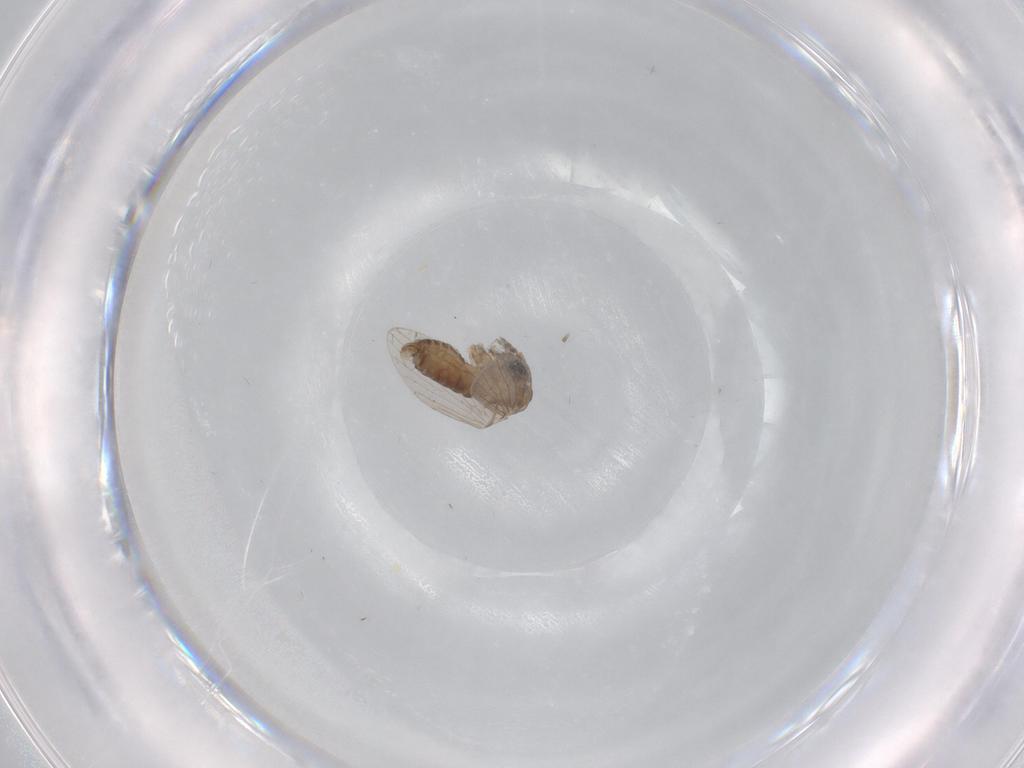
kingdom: Animalia
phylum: Arthropoda
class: Insecta
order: Diptera
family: Psychodidae
